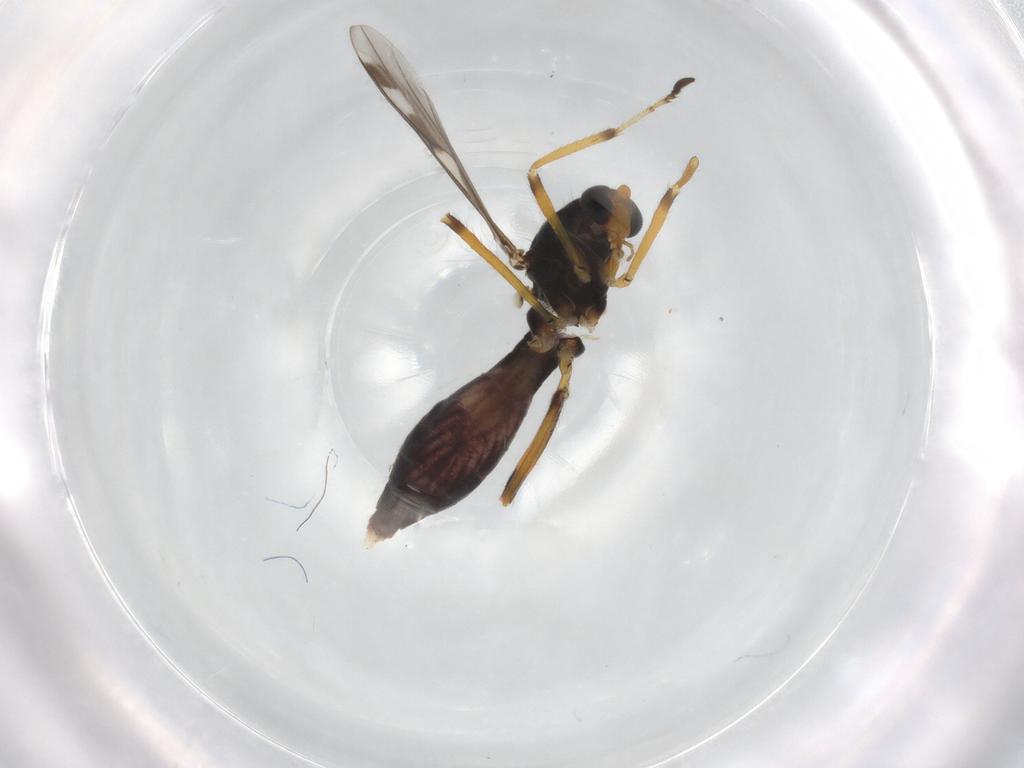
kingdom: Animalia
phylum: Arthropoda
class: Insecta
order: Diptera
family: Ceratopogonidae
